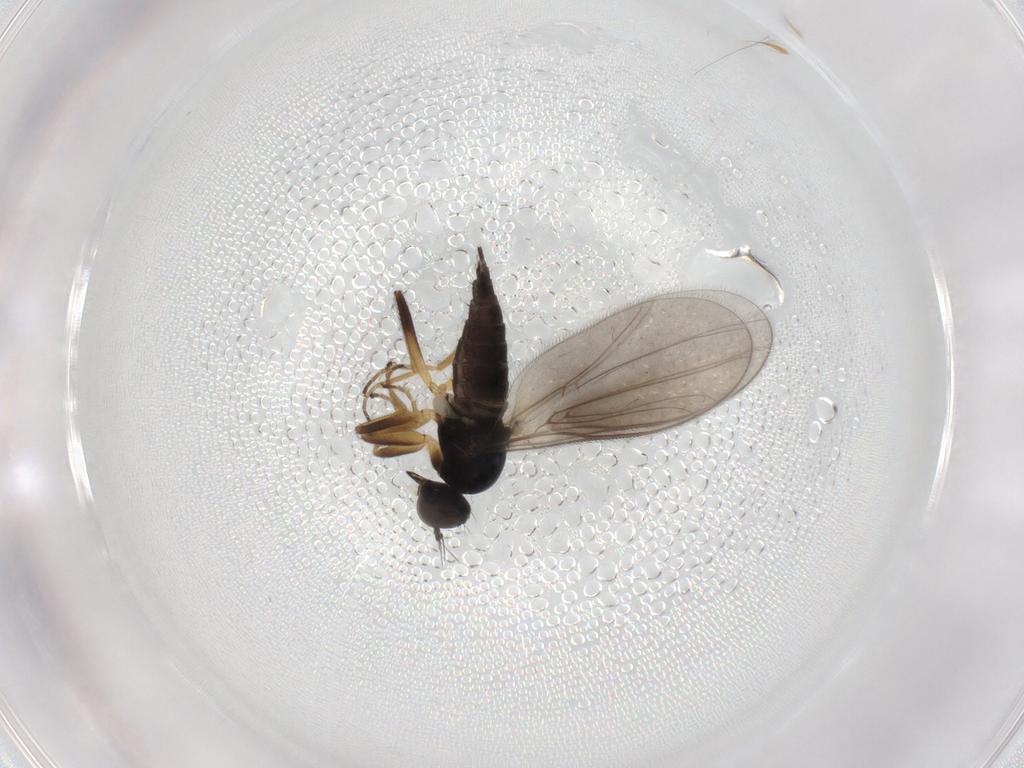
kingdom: Animalia
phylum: Arthropoda
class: Insecta
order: Diptera
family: Hybotidae
